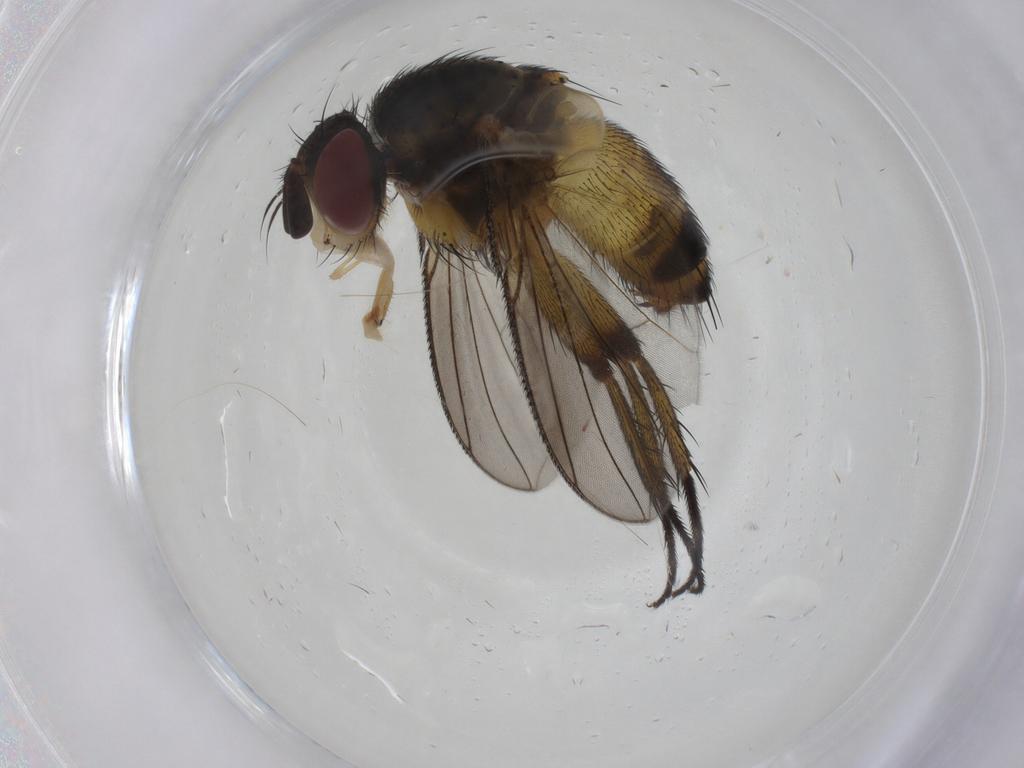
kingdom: Animalia
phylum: Arthropoda
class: Insecta
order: Diptera
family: Tachinidae
